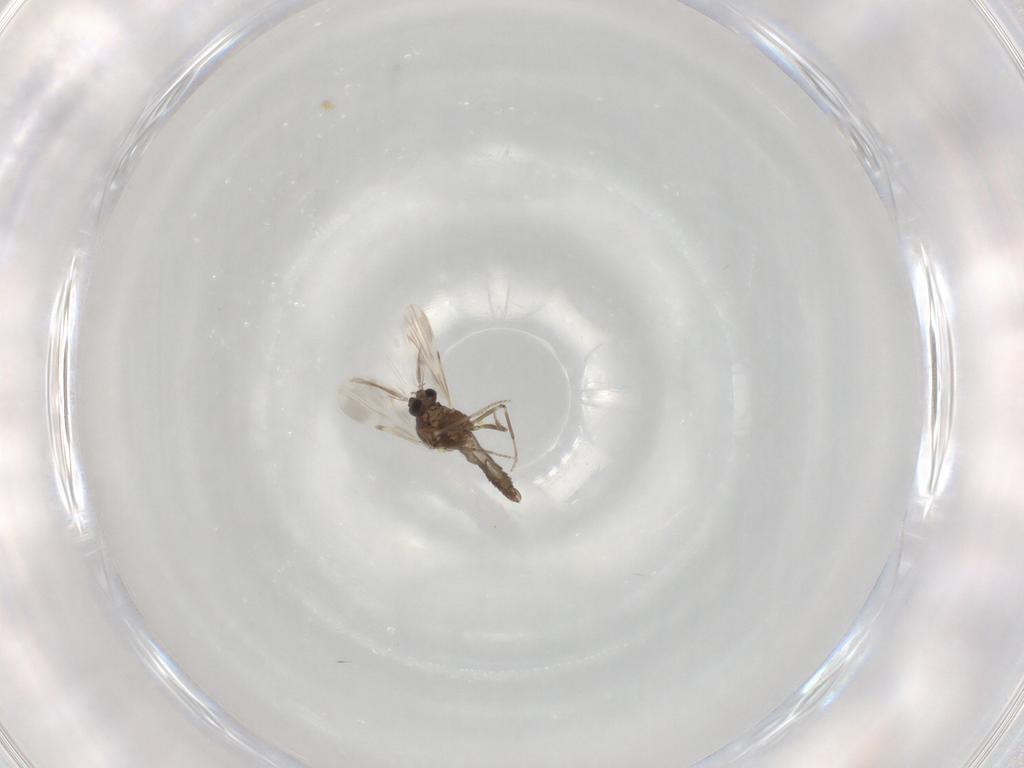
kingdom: Animalia
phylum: Arthropoda
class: Insecta
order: Diptera
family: Ceratopogonidae
